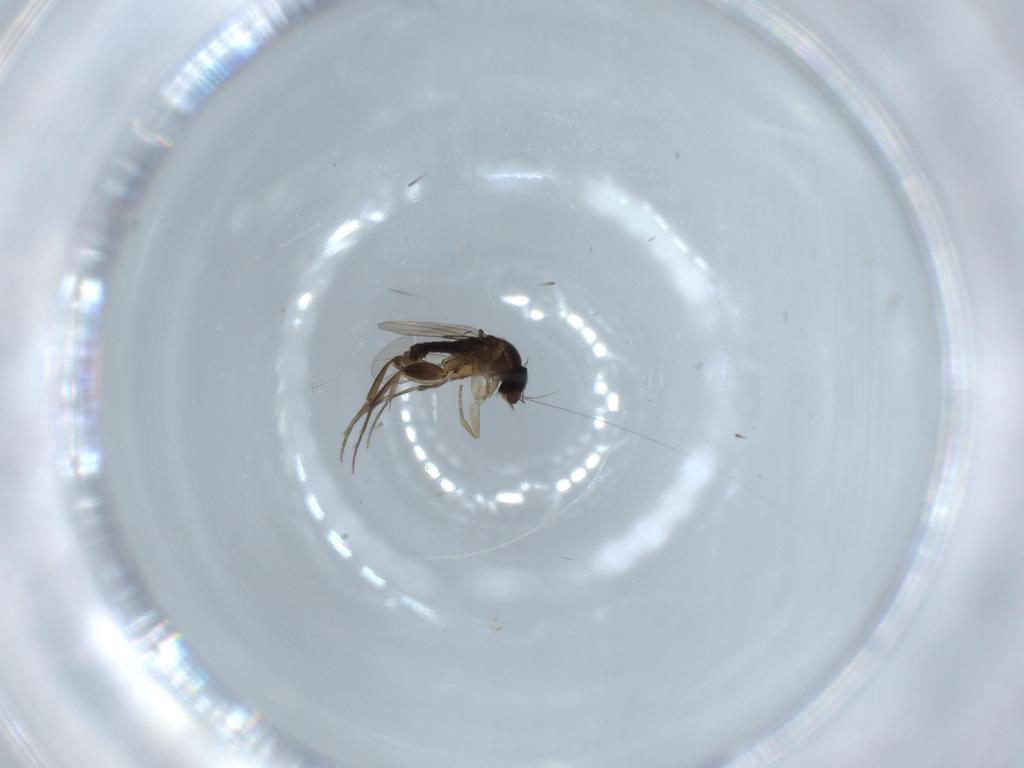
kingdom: Animalia
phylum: Arthropoda
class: Insecta
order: Diptera
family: Phoridae
